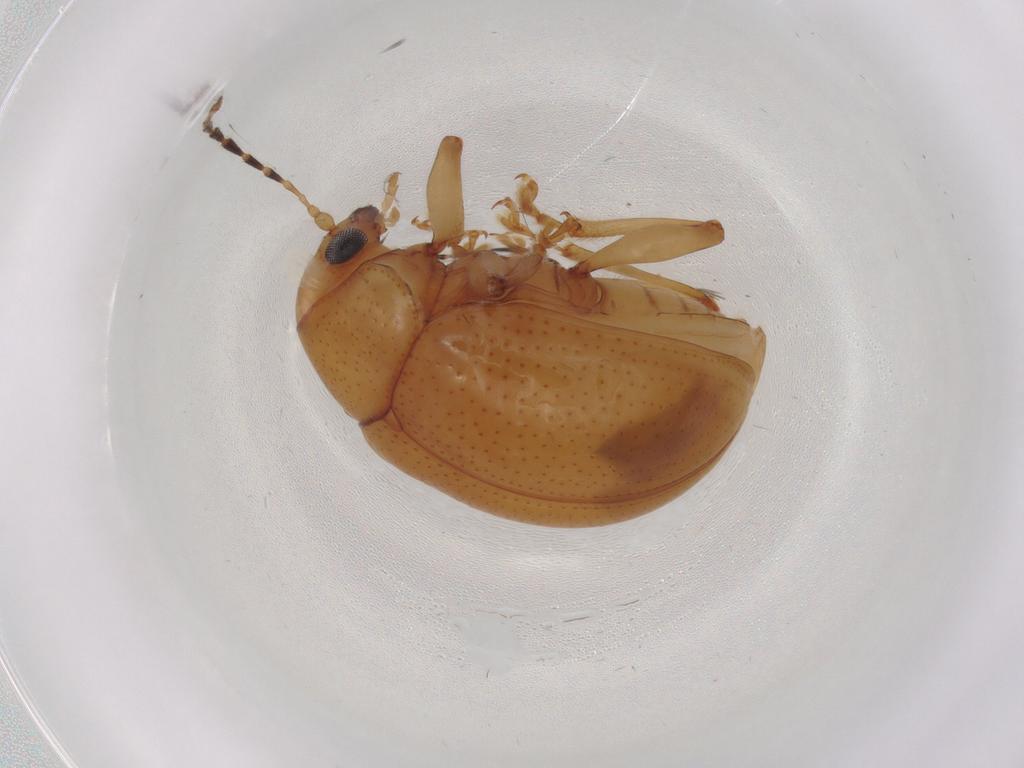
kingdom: Animalia
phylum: Arthropoda
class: Insecta
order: Coleoptera
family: Chrysomelidae
